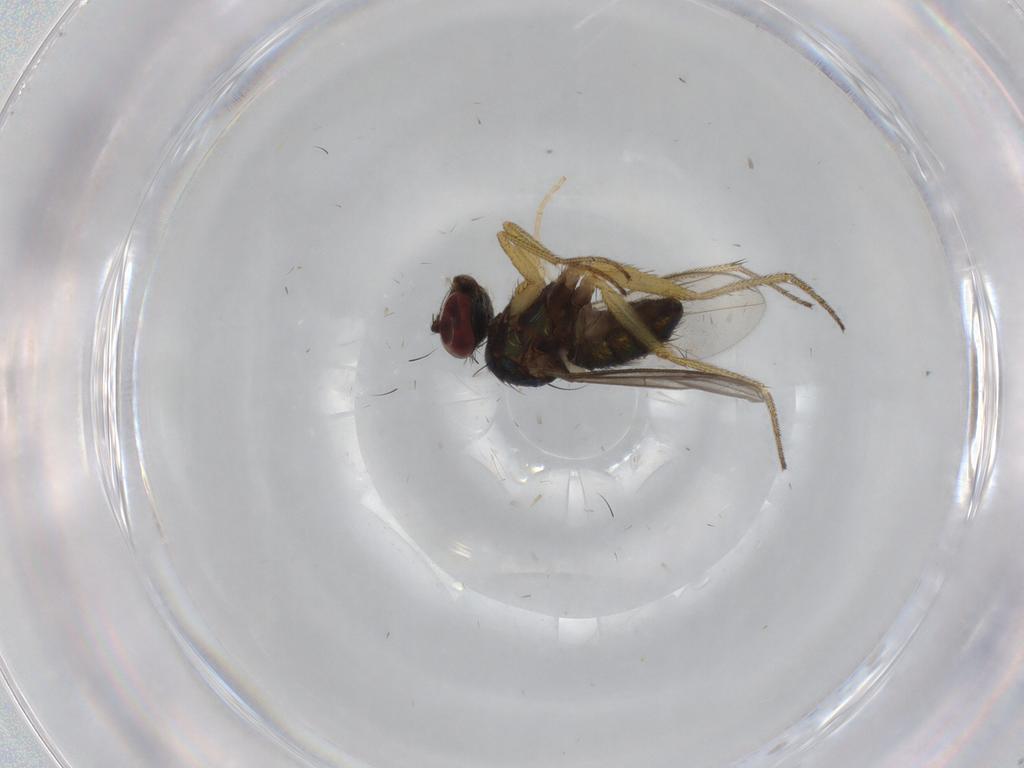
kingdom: Animalia
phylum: Arthropoda
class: Insecta
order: Diptera
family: Dolichopodidae
